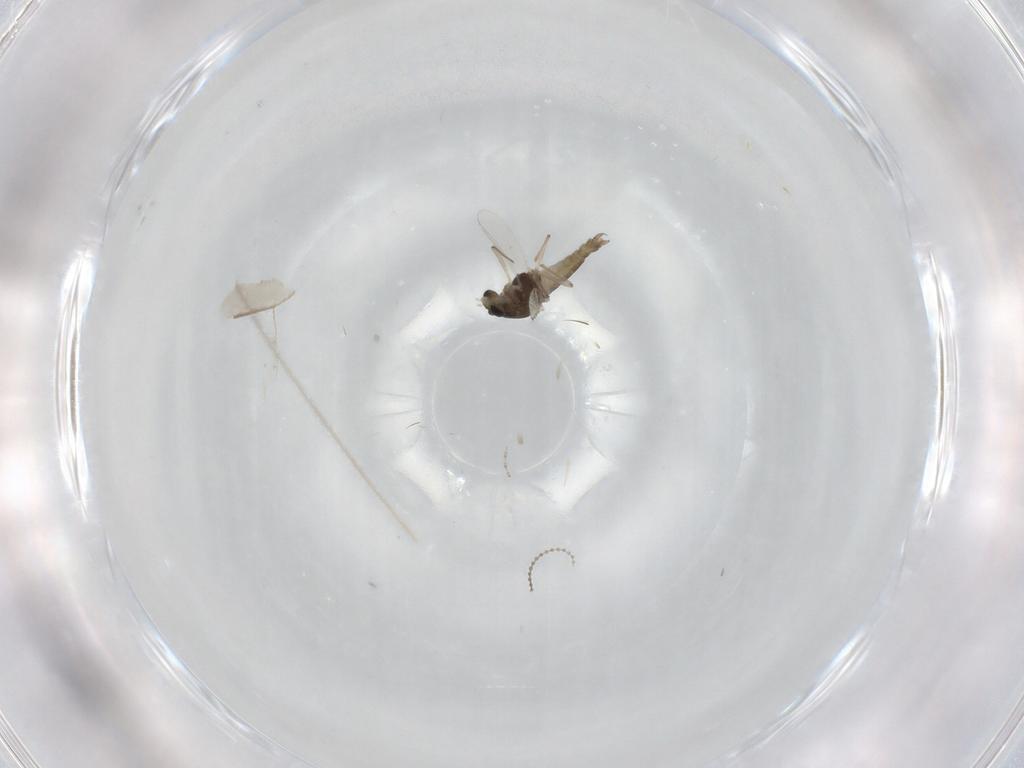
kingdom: Animalia
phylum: Arthropoda
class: Insecta
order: Diptera
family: Chironomidae
